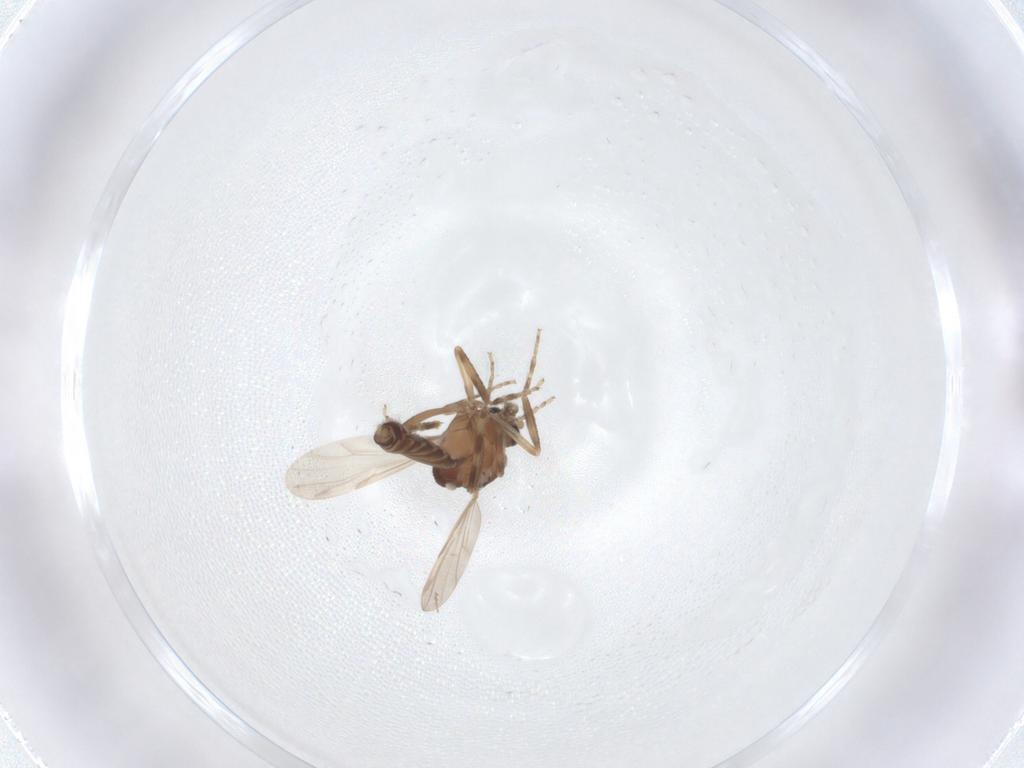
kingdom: Animalia
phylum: Arthropoda
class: Insecta
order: Diptera
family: Ceratopogonidae
